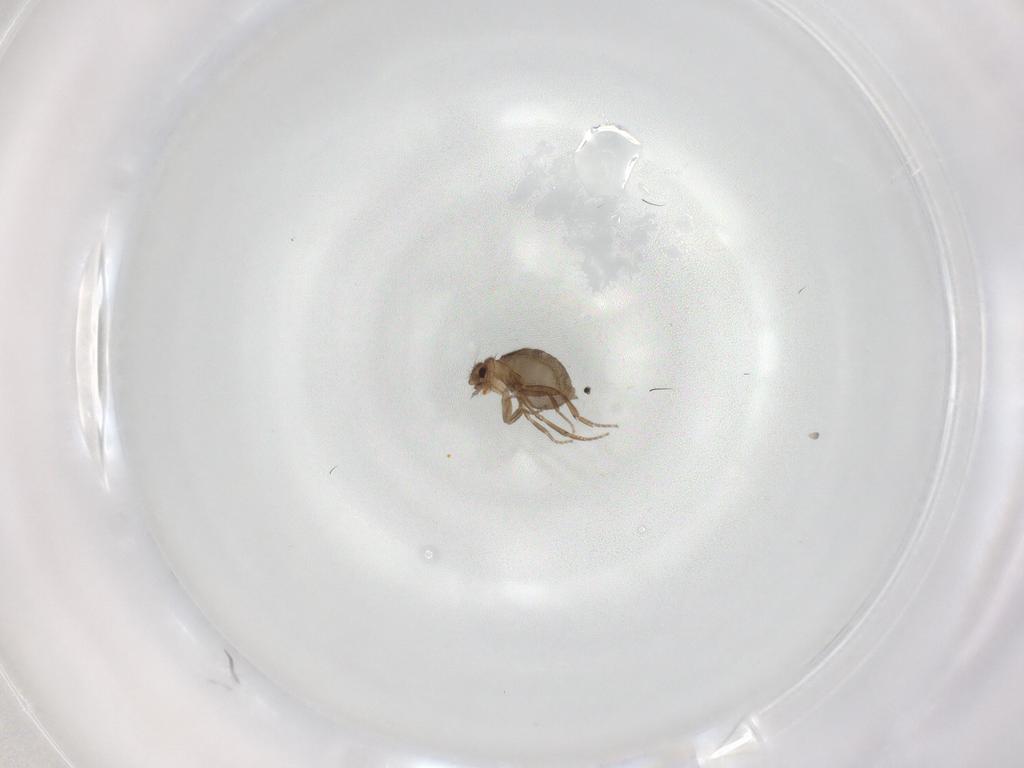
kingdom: Animalia
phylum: Arthropoda
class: Insecta
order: Diptera
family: Sciaridae
